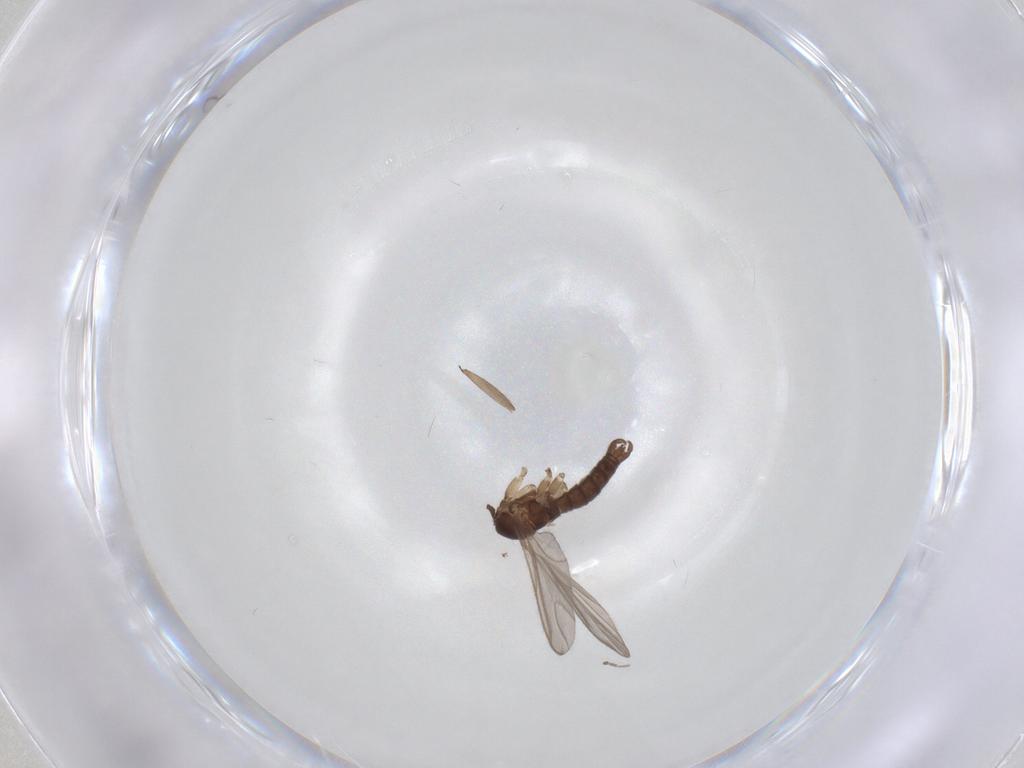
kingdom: Animalia
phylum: Arthropoda
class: Insecta
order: Diptera
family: Sciaridae
